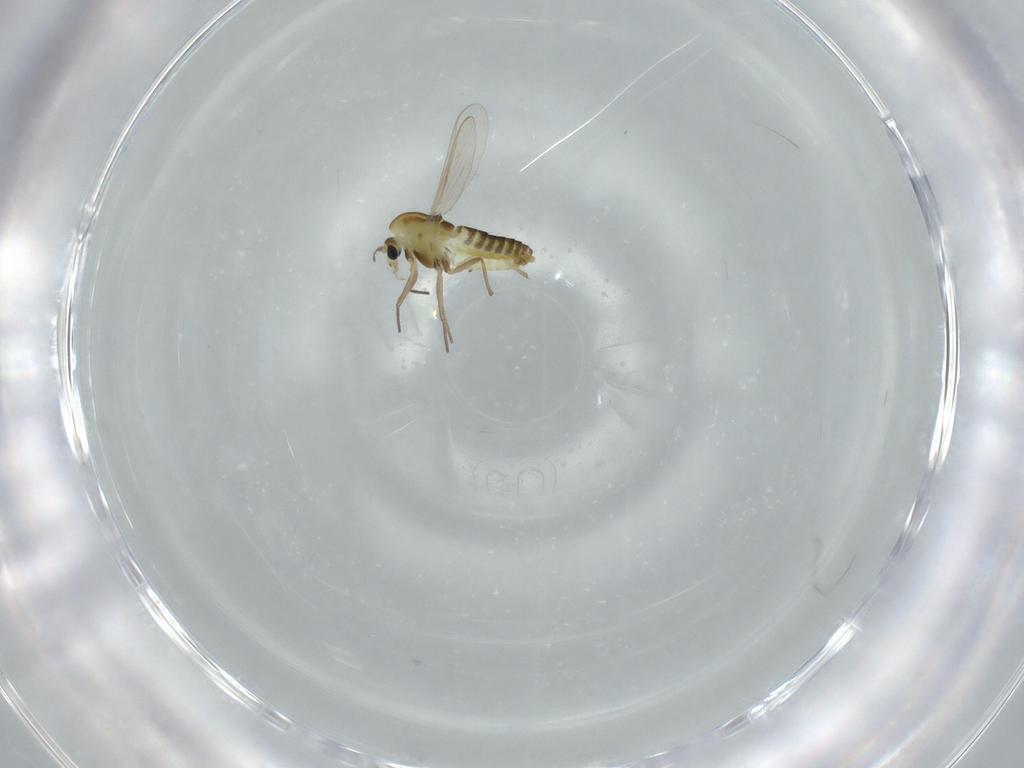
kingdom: Animalia
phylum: Arthropoda
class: Insecta
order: Diptera
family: Chironomidae
